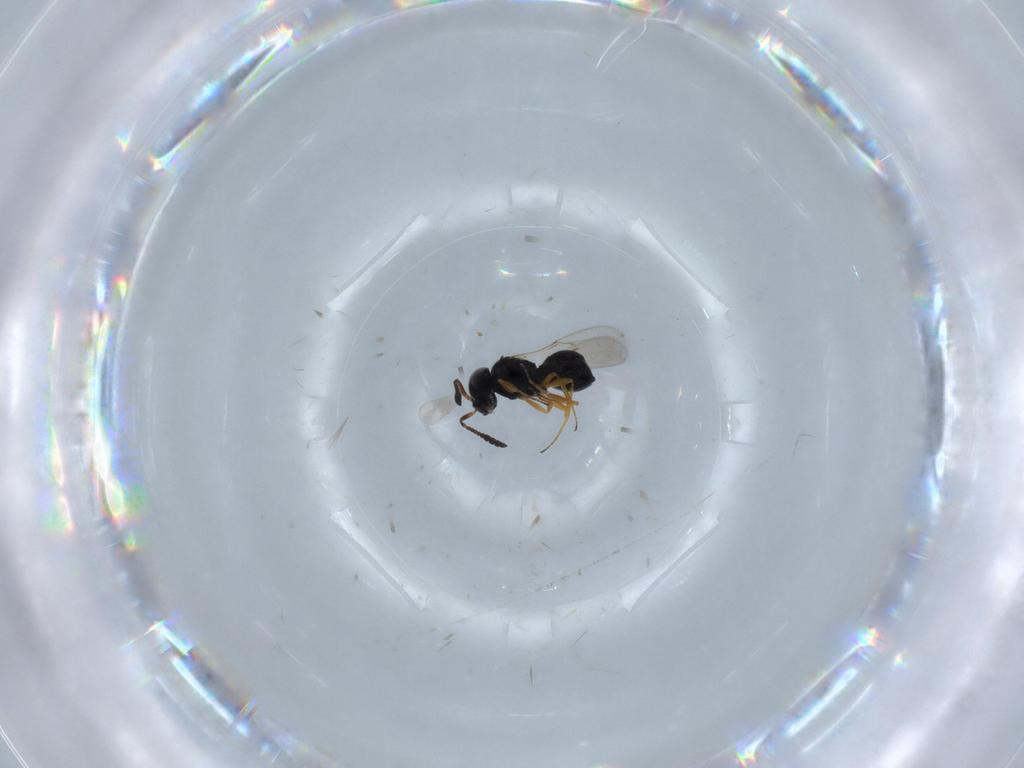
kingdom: Animalia
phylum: Arthropoda
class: Insecta
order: Hymenoptera
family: Scelionidae
